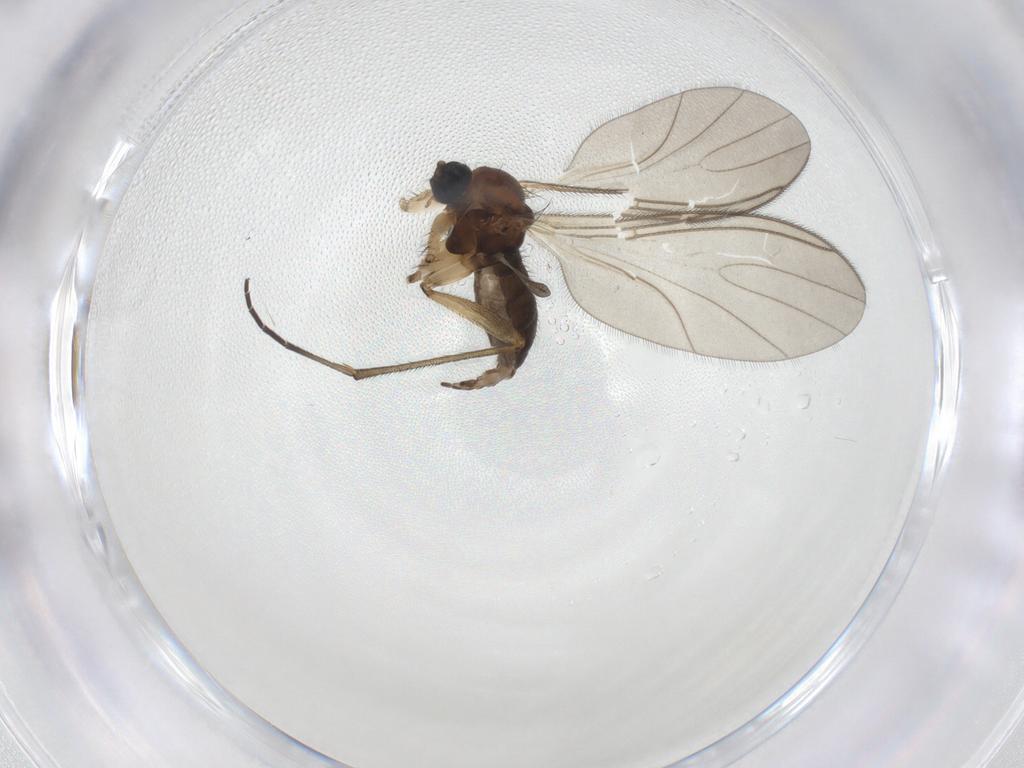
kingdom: Animalia
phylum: Arthropoda
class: Insecta
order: Diptera
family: Sciaridae
